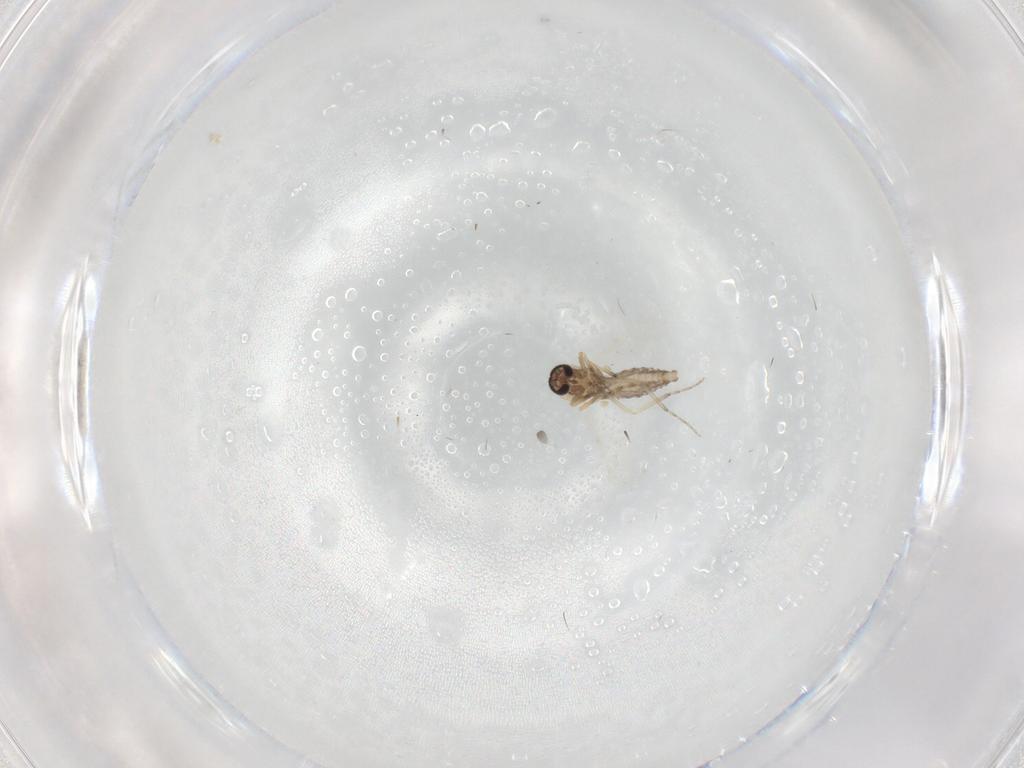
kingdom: Animalia
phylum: Arthropoda
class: Insecta
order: Diptera
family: Ceratopogonidae
